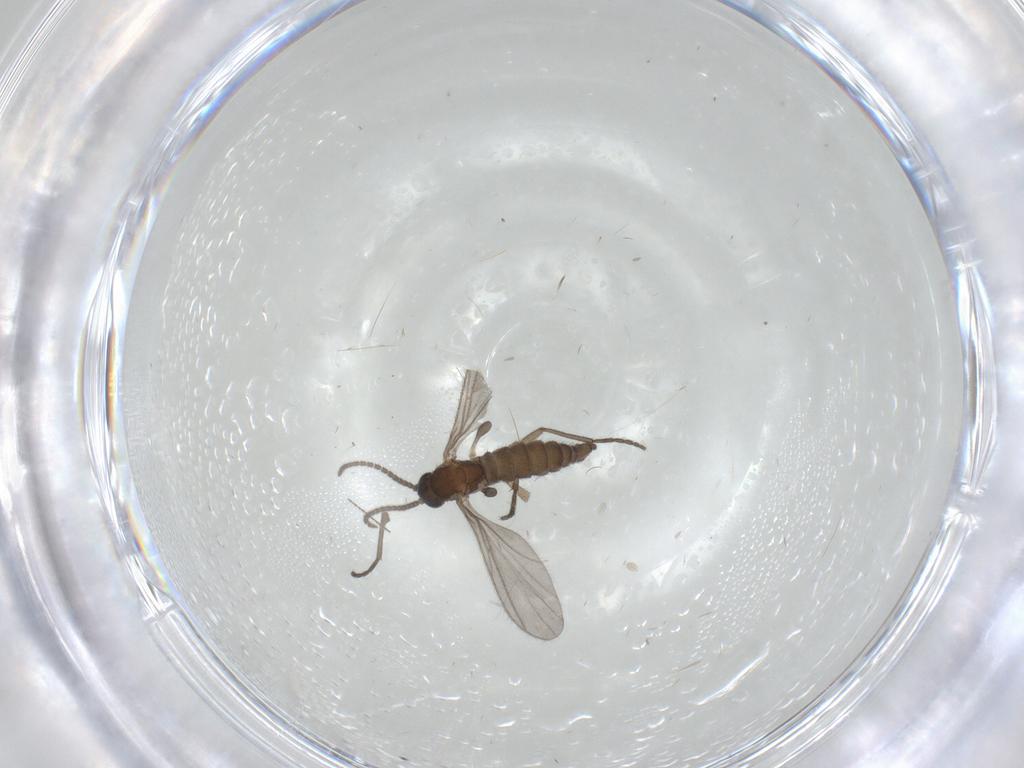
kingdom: Animalia
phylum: Arthropoda
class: Insecta
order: Diptera
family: Sciaridae
